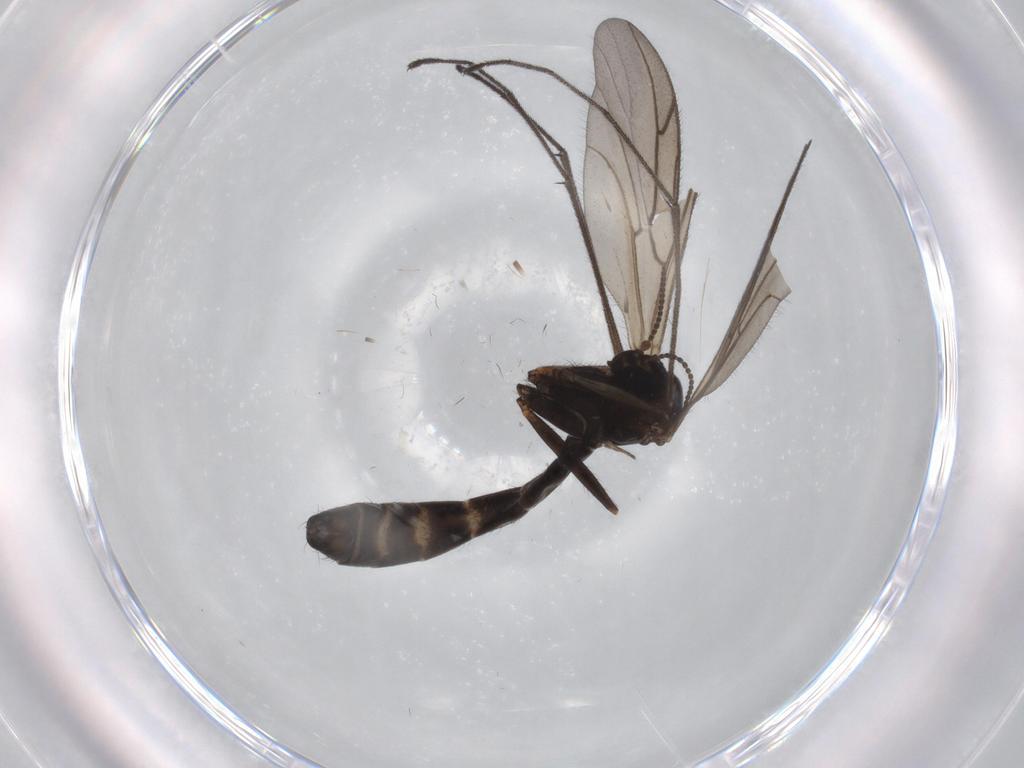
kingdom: Animalia
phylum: Arthropoda
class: Insecta
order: Diptera
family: Ditomyiidae
